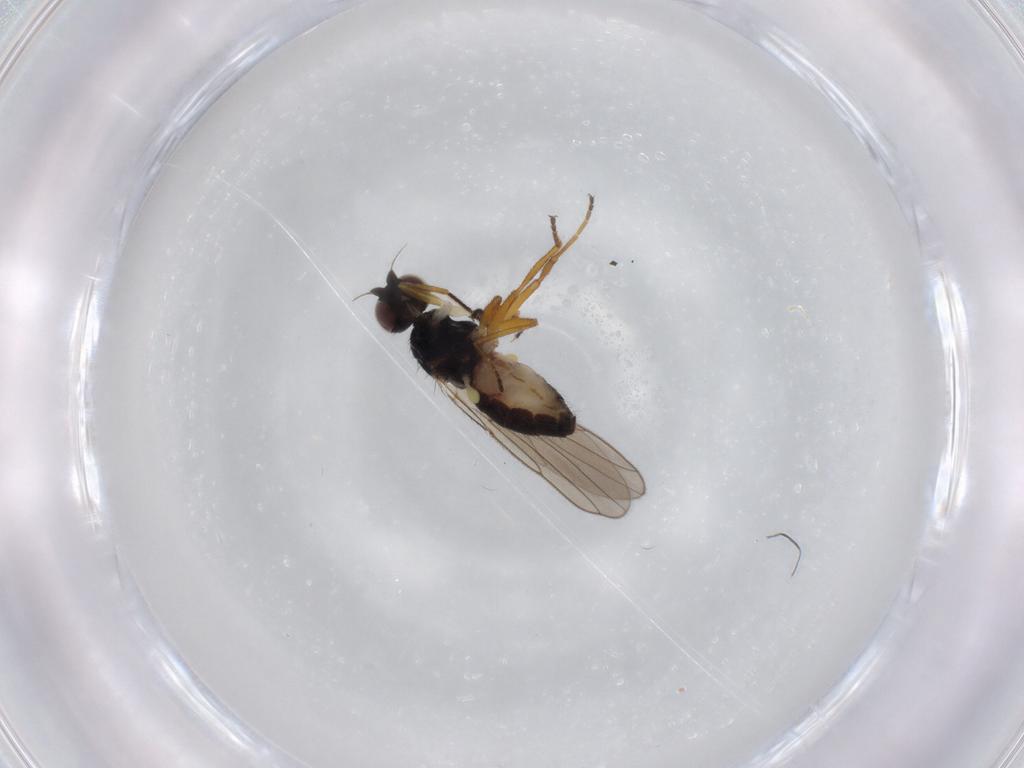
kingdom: Animalia
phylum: Arthropoda
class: Insecta
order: Diptera
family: Chloropidae
